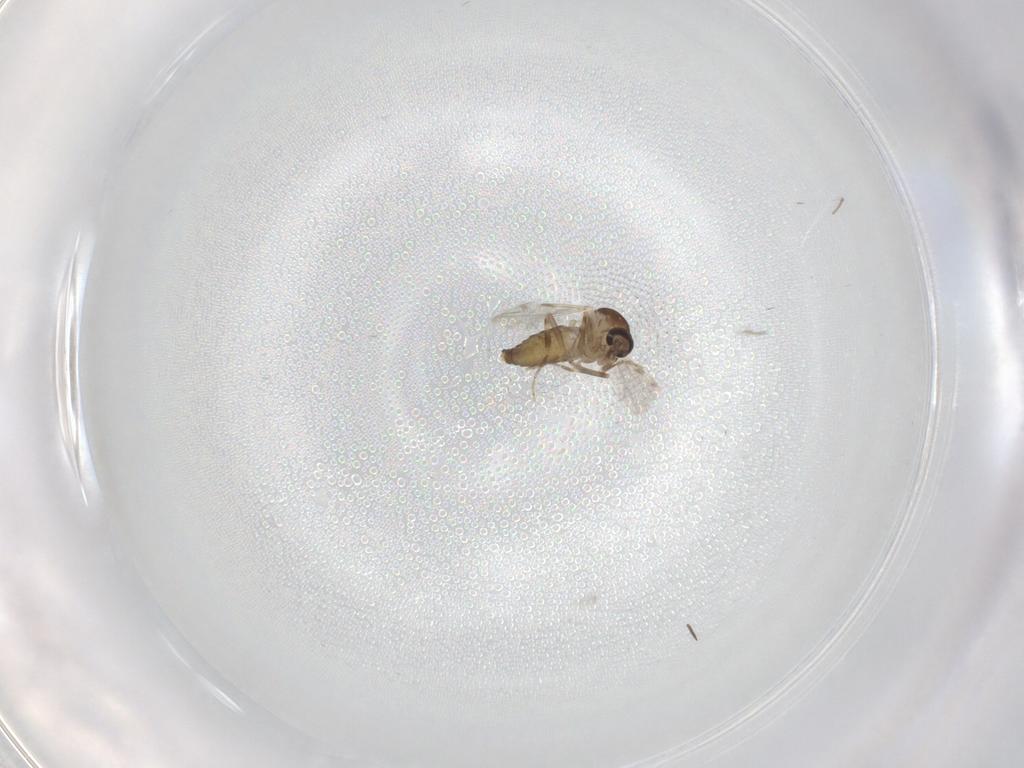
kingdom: Animalia
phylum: Arthropoda
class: Insecta
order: Diptera
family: Ceratopogonidae
